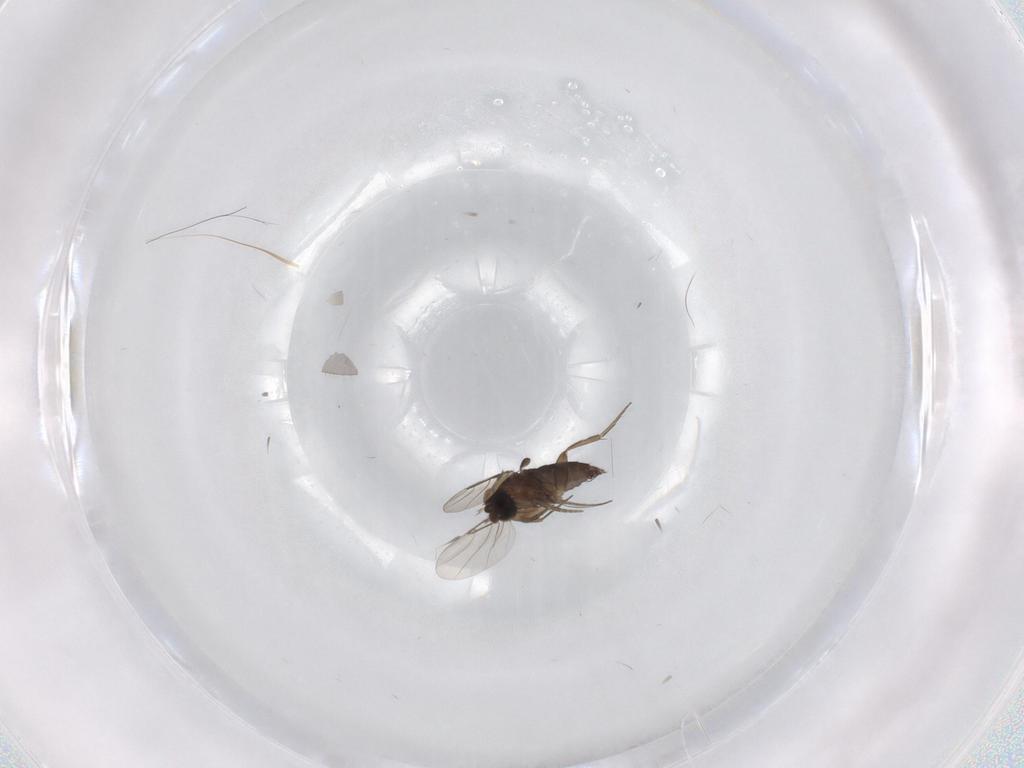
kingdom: Animalia
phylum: Arthropoda
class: Insecta
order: Diptera
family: Phoridae
